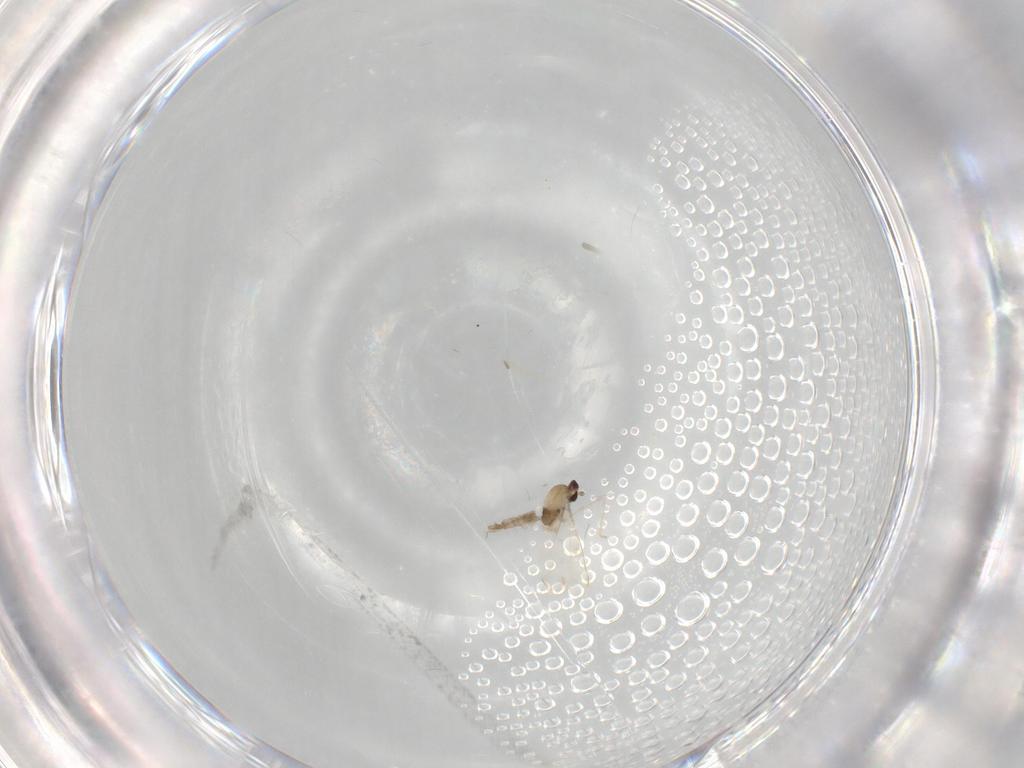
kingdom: Animalia
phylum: Arthropoda
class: Insecta
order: Diptera
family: Cecidomyiidae
